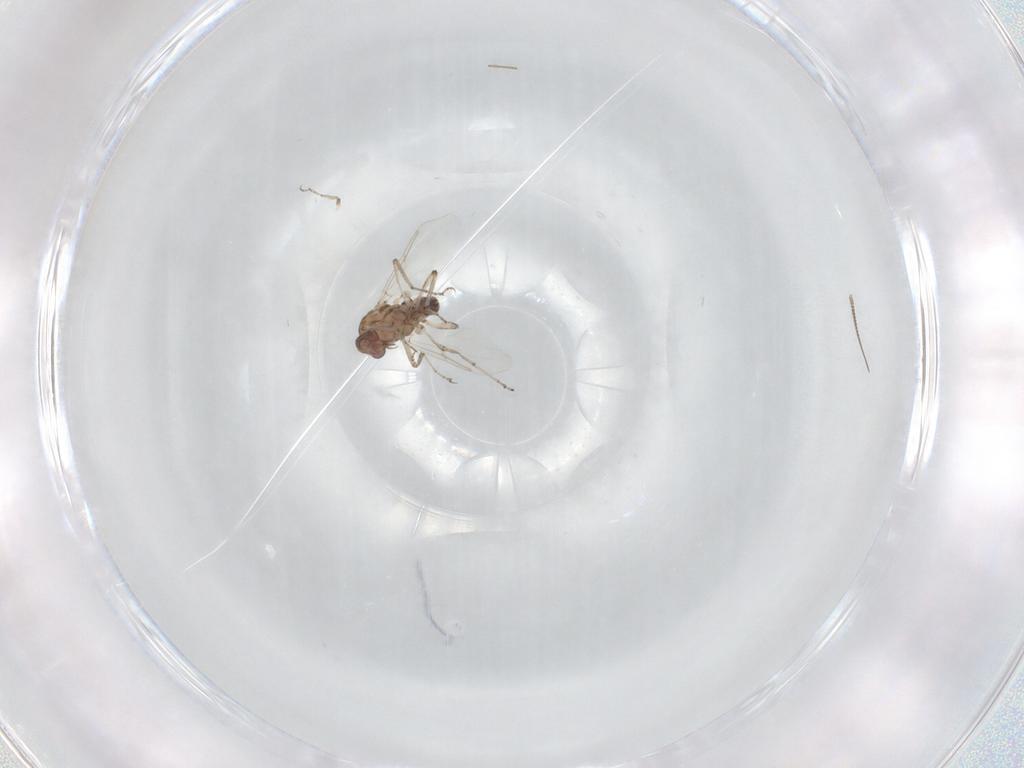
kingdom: Animalia
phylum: Arthropoda
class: Insecta
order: Diptera
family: Ceratopogonidae
